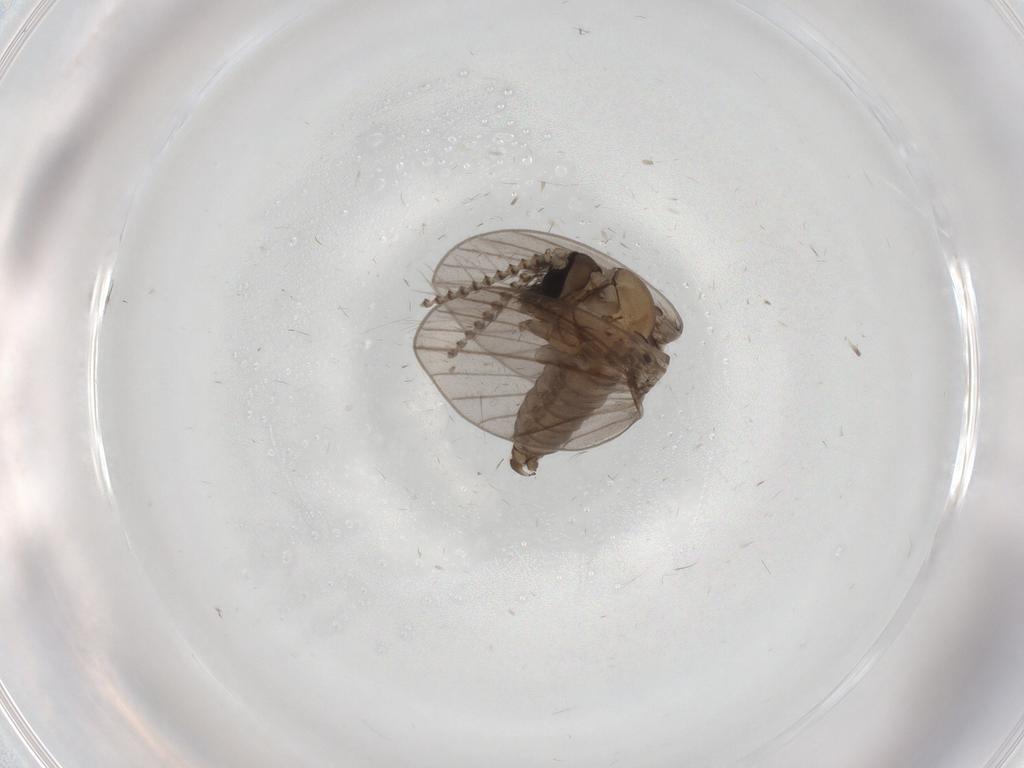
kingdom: Animalia
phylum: Arthropoda
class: Insecta
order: Diptera
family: Psychodidae
